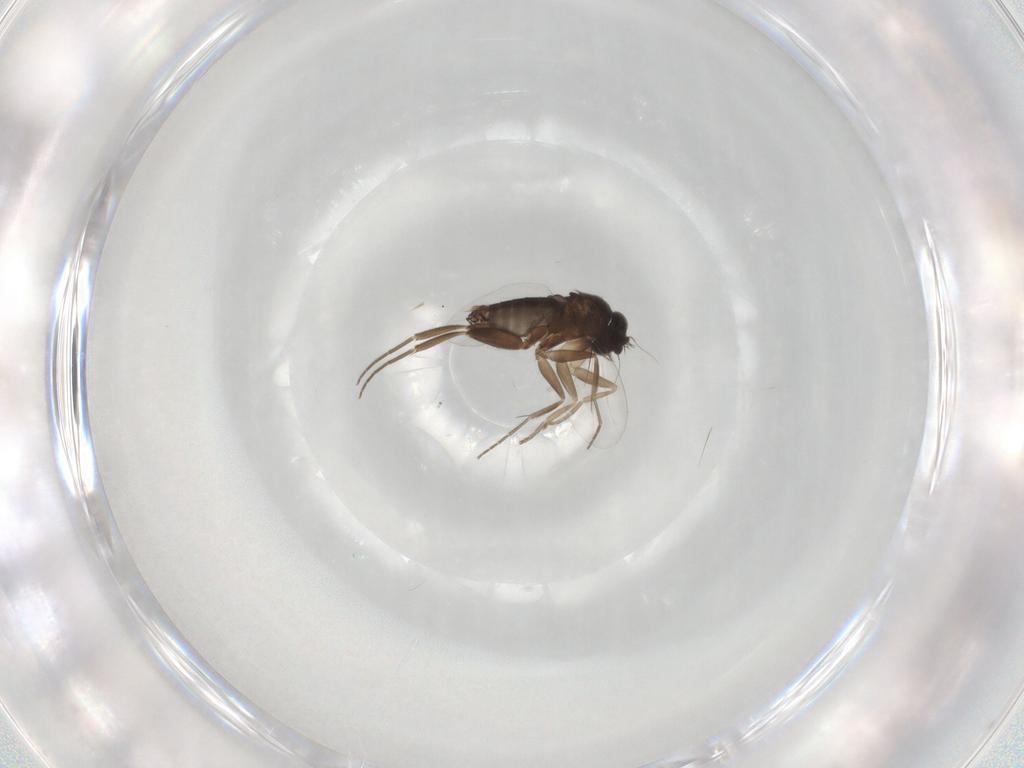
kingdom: Animalia
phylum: Arthropoda
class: Insecta
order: Diptera
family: Phoridae
